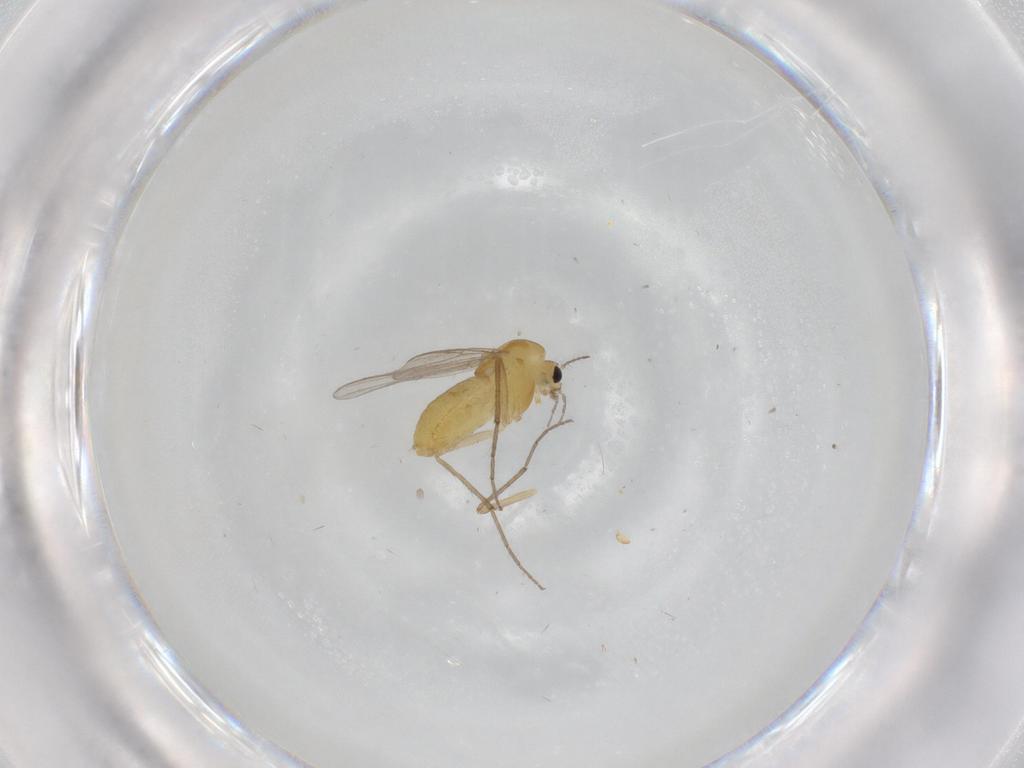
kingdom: Animalia
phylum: Arthropoda
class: Insecta
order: Diptera
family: Chironomidae
